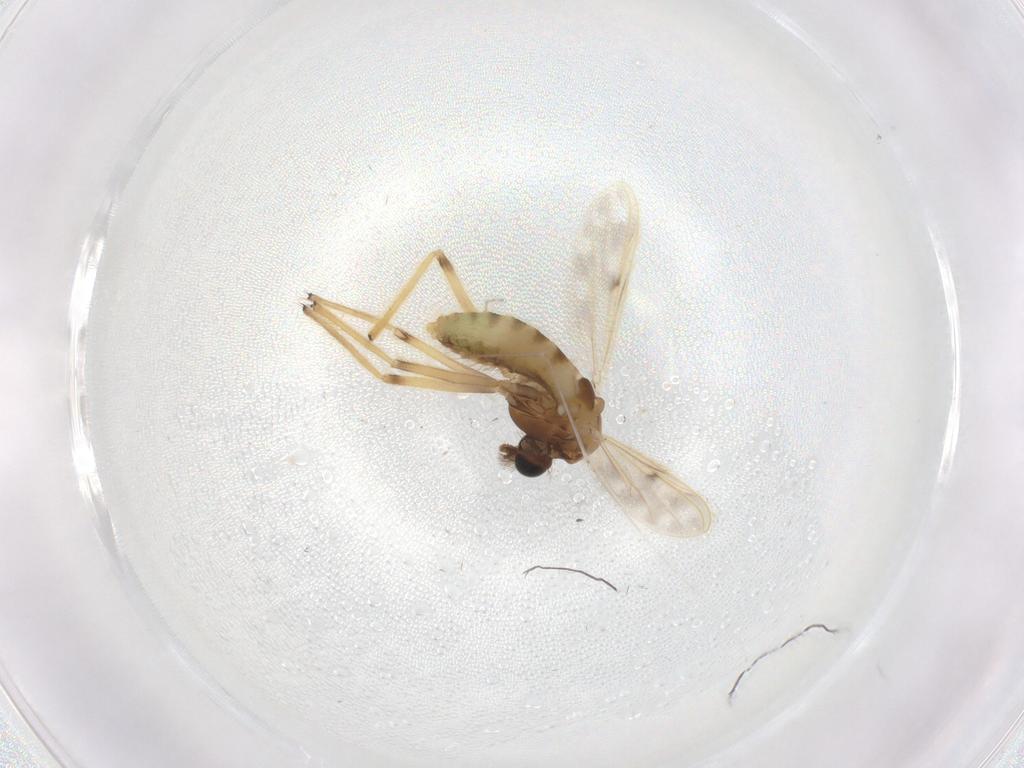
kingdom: Animalia
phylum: Arthropoda
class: Insecta
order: Diptera
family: Chironomidae
